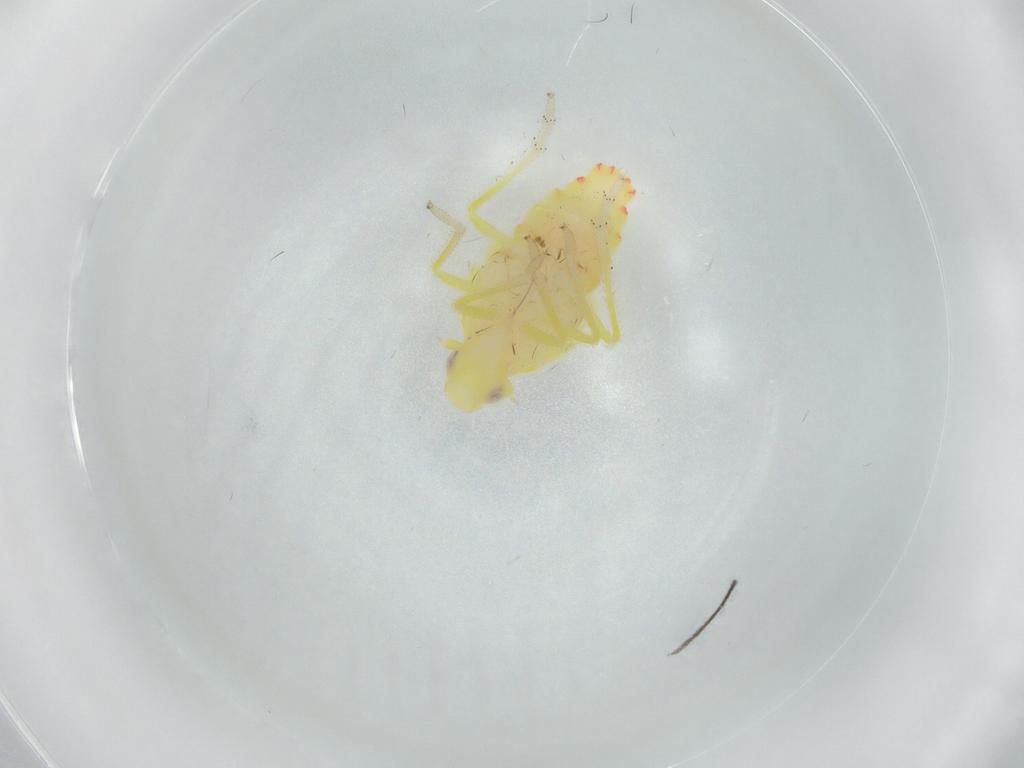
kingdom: Animalia
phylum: Arthropoda
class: Insecta
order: Hemiptera
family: Tropiduchidae
